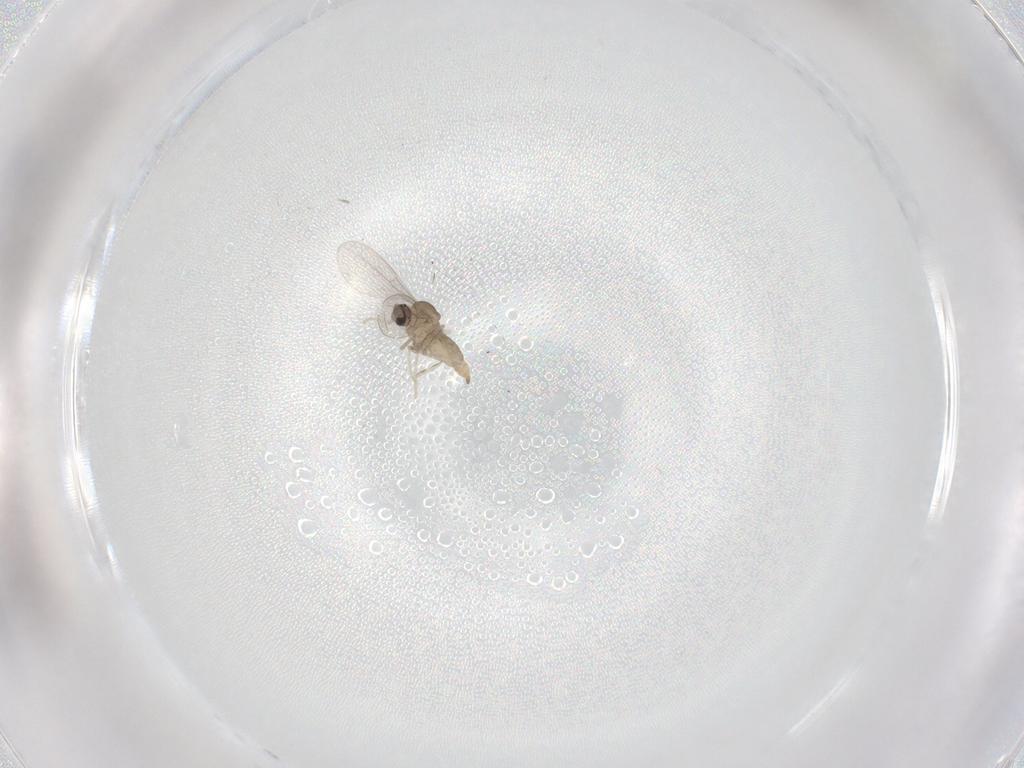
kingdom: Animalia
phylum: Arthropoda
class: Insecta
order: Diptera
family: Cecidomyiidae
